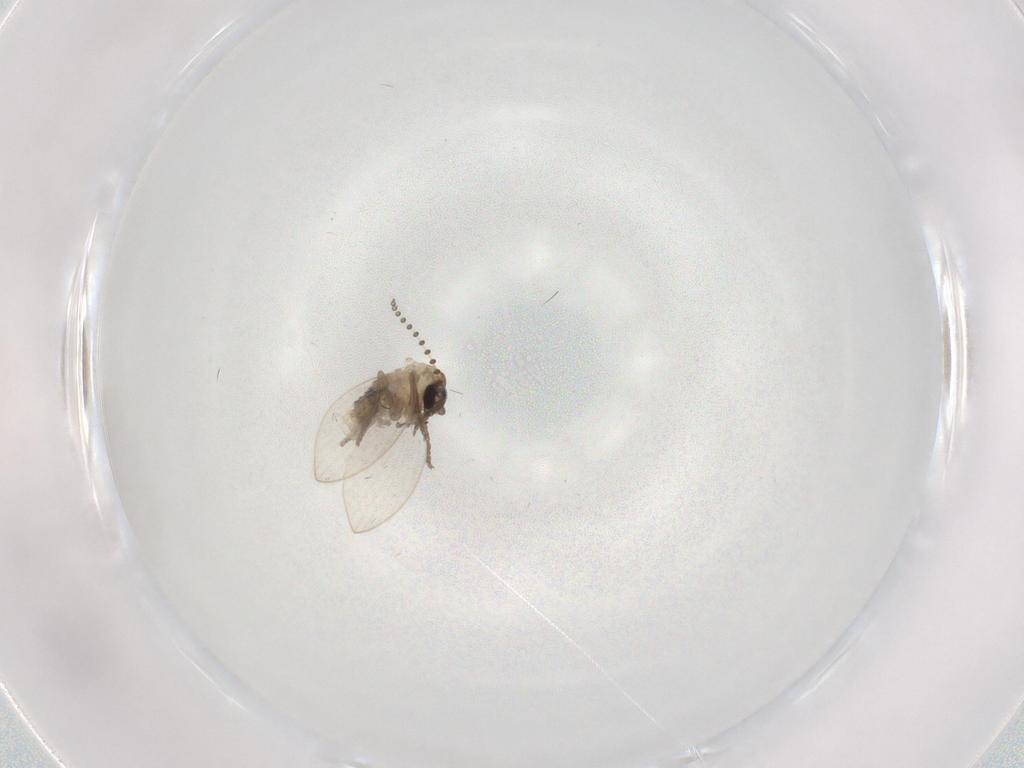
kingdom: Animalia
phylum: Arthropoda
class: Insecta
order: Diptera
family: Psychodidae
